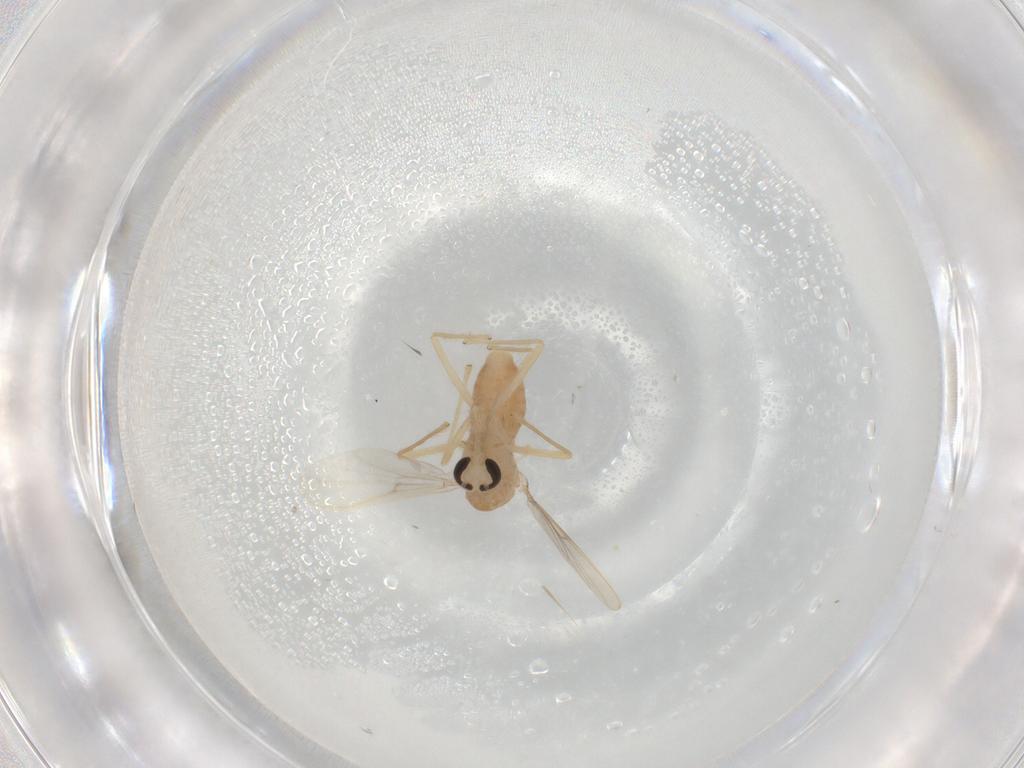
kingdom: Animalia
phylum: Arthropoda
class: Insecta
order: Diptera
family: Chironomidae
